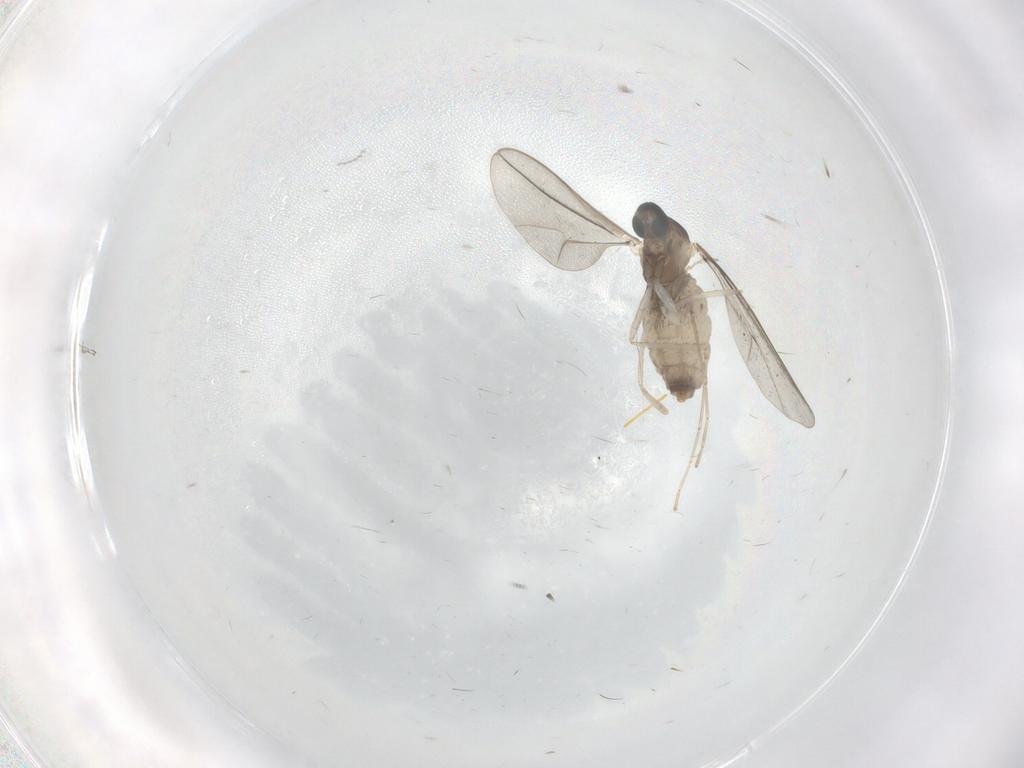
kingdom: Animalia
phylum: Arthropoda
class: Insecta
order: Diptera
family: Cecidomyiidae
